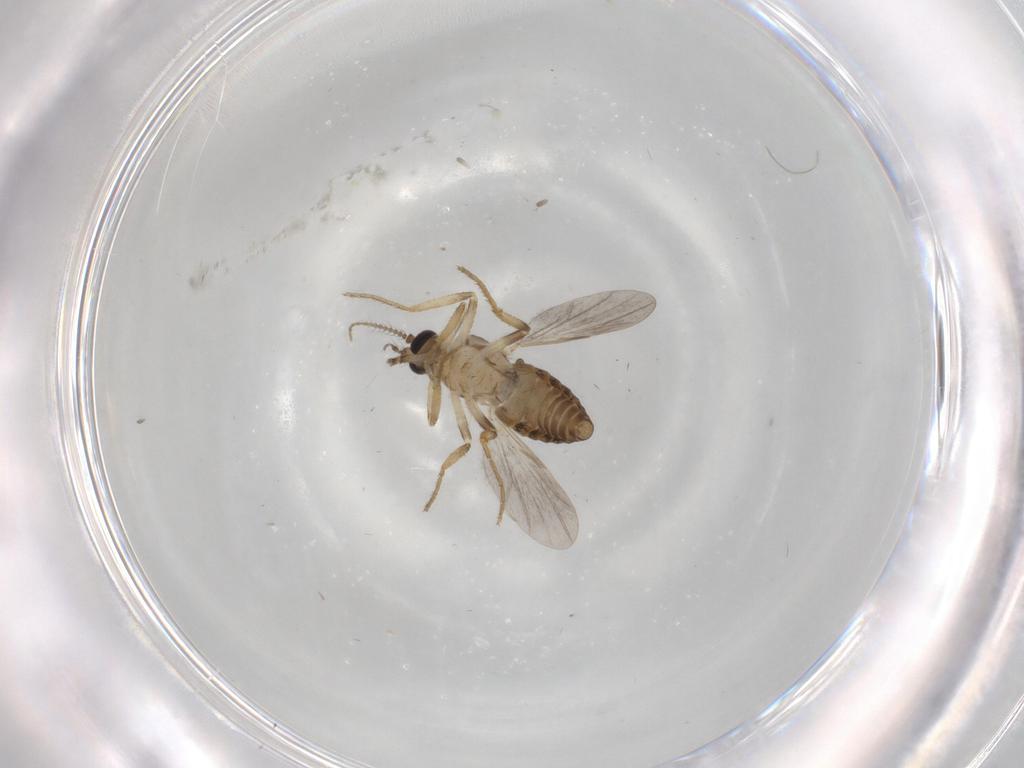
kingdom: Animalia
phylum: Arthropoda
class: Insecta
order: Diptera
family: Ceratopogonidae
